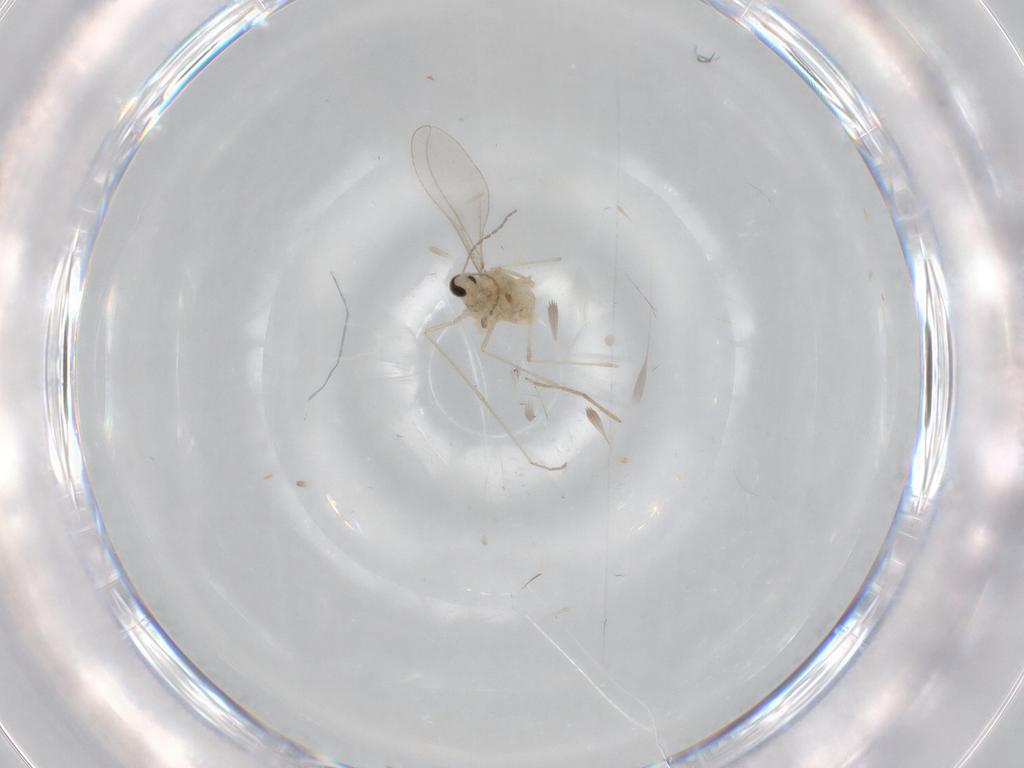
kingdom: Animalia
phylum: Arthropoda
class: Insecta
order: Diptera
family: Cecidomyiidae
